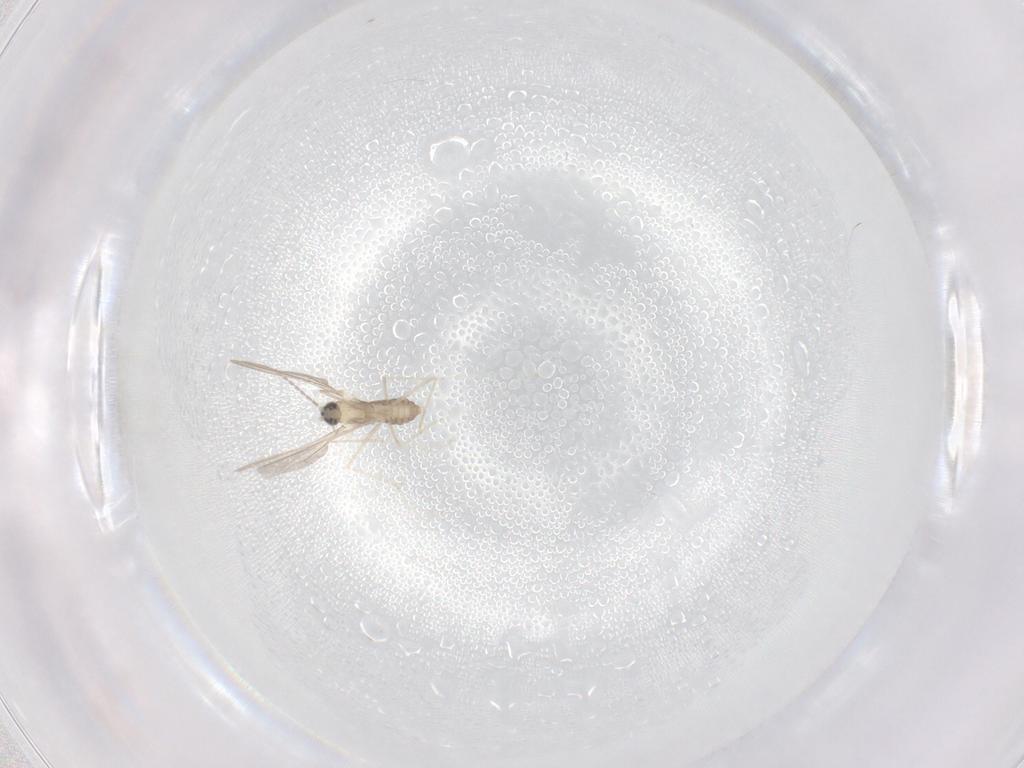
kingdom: Animalia
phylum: Arthropoda
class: Insecta
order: Diptera
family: Cecidomyiidae
